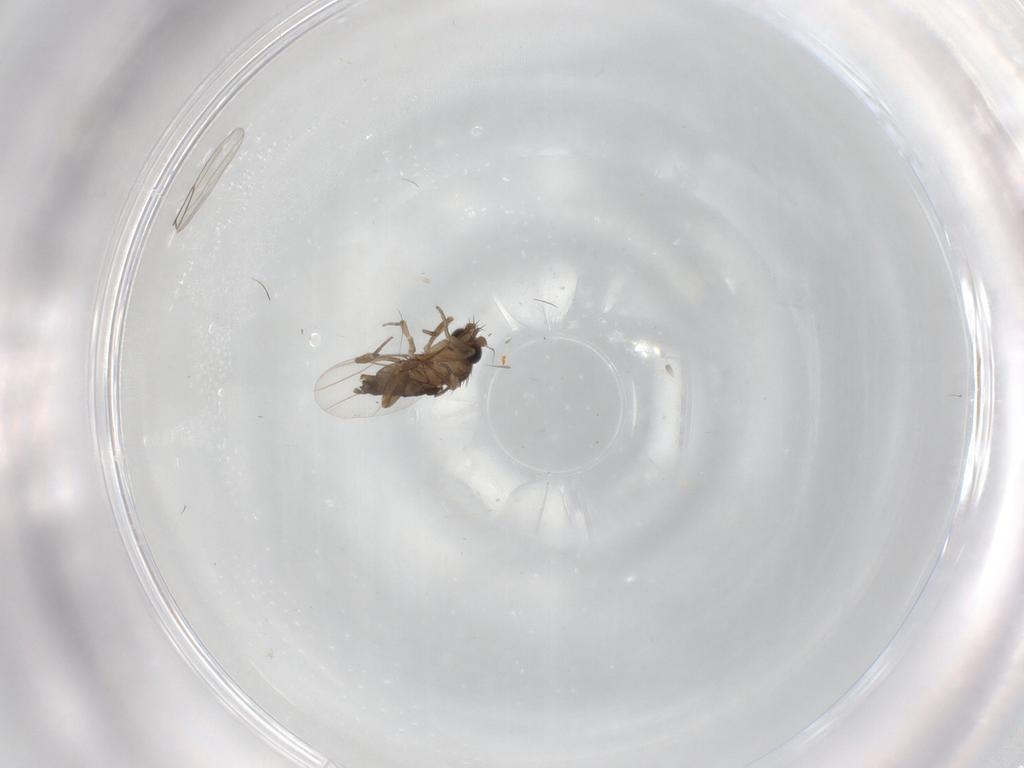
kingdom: Animalia
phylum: Arthropoda
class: Insecta
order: Diptera
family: Phoridae
